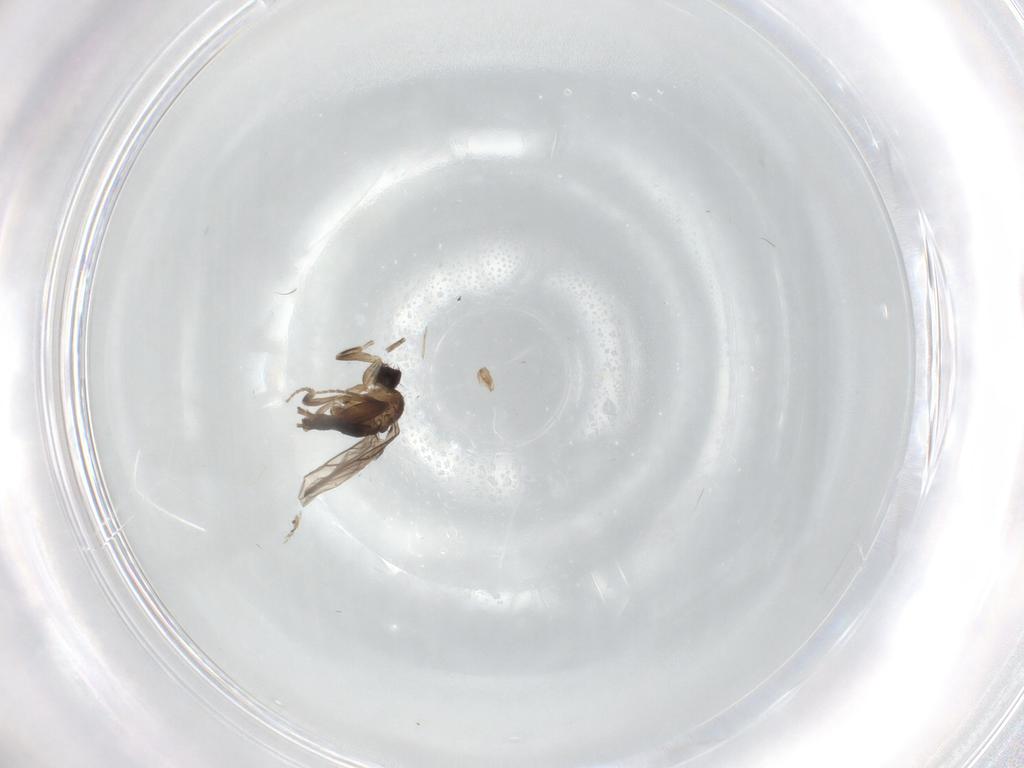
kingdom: Animalia
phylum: Arthropoda
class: Insecta
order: Diptera
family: Phoridae
